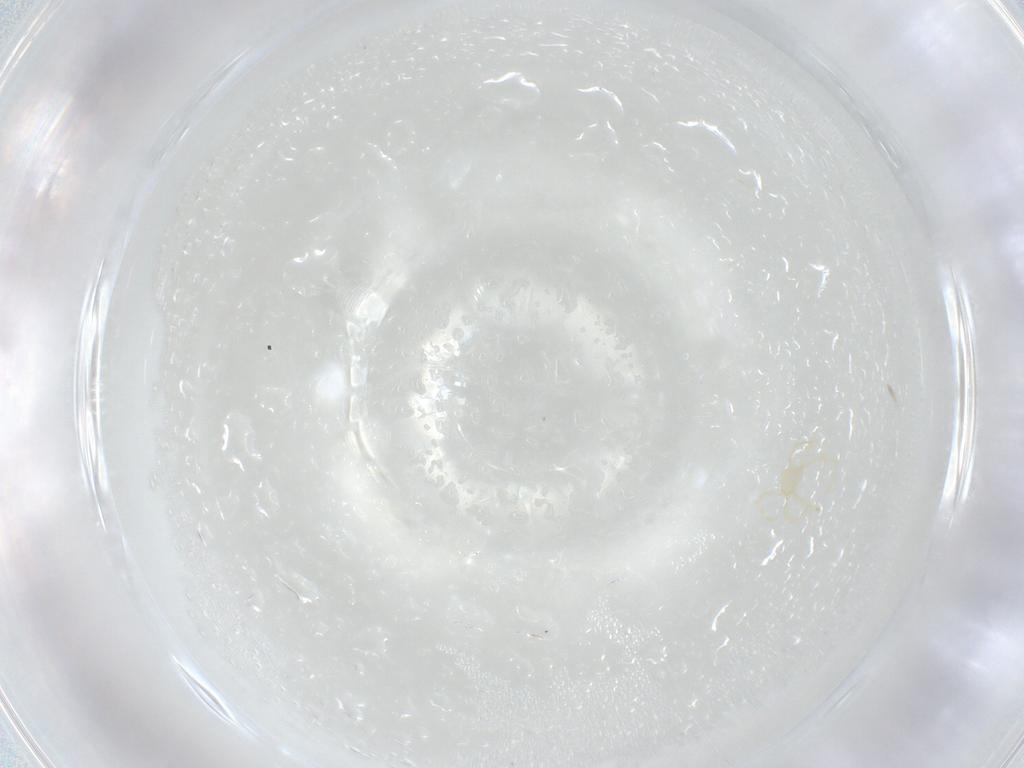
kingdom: Animalia
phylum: Arthropoda
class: Arachnida
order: Trombidiformes
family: Erythraeidae
